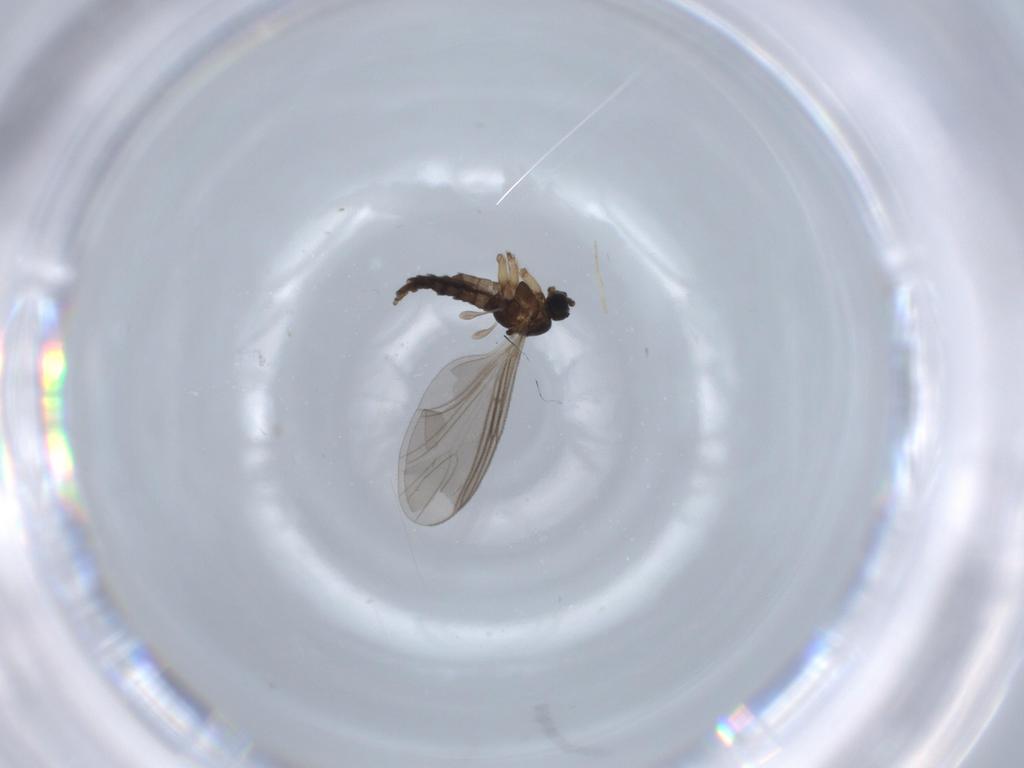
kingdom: Animalia
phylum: Arthropoda
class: Insecta
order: Diptera
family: Sciaridae
